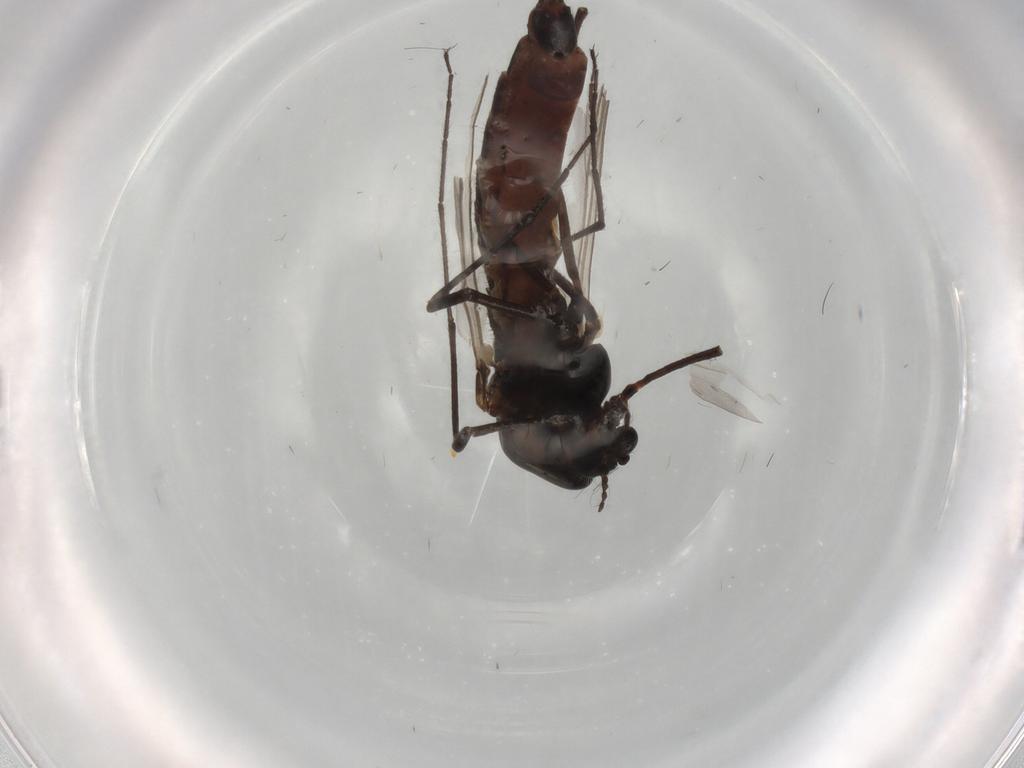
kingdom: Animalia
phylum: Arthropoda
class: Insecta
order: Diptera
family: Chironomidae
